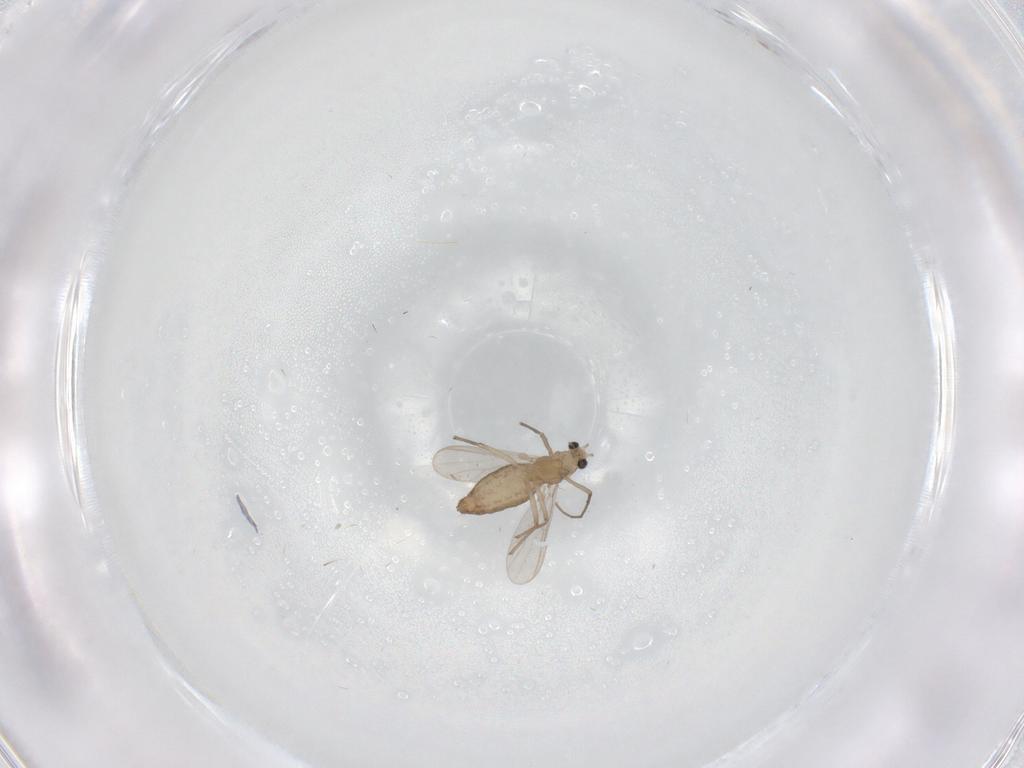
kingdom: Animalia
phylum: Arthropoda
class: Insecta
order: Diptera
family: Chironomidae
